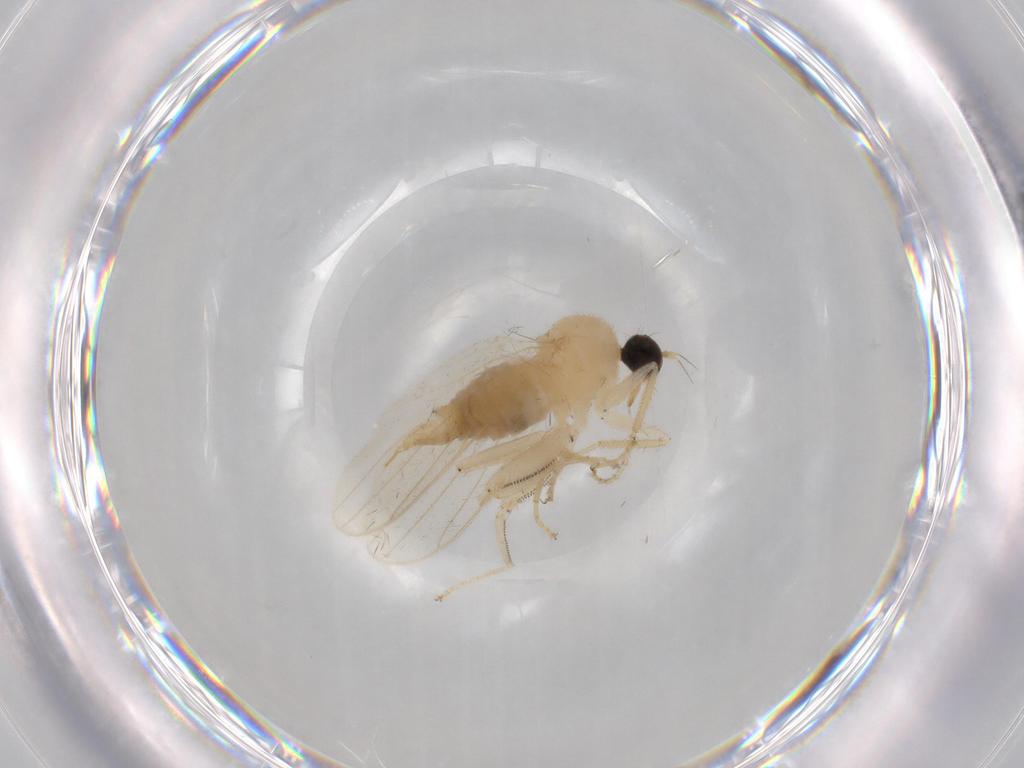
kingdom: Animalia
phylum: Arthropoda
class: Insecta
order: Diptera
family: Hybotidae
